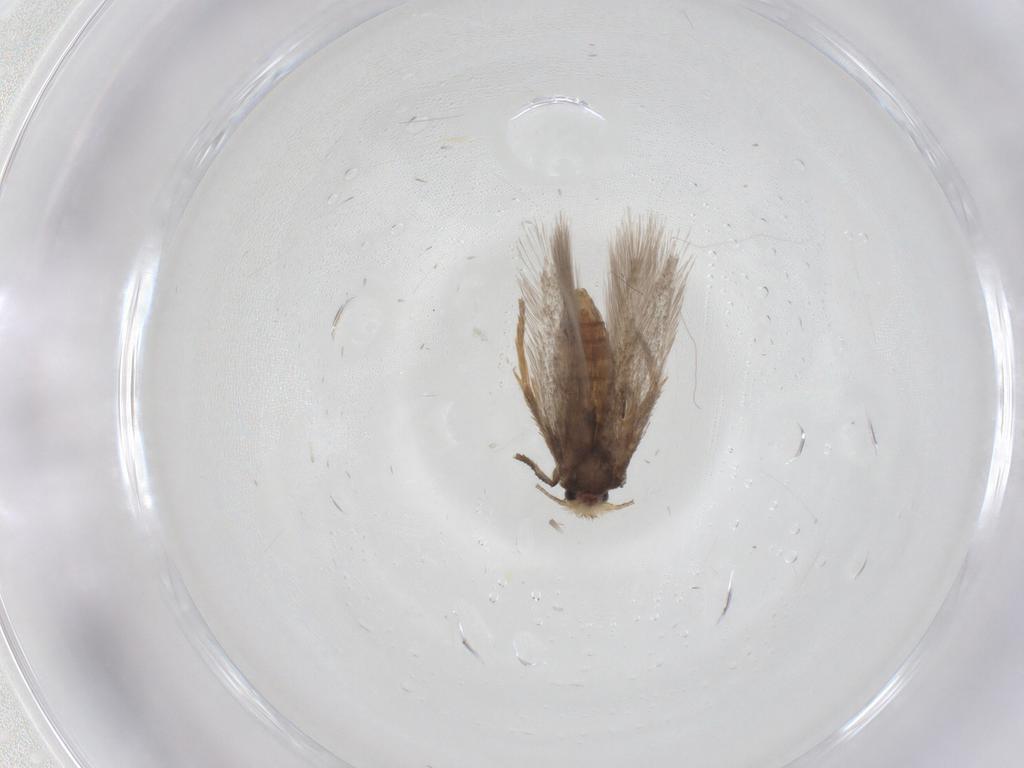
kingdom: Animalia
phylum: Arthropoda
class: Insecta
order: Lepidoptera
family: Nepticulidae
